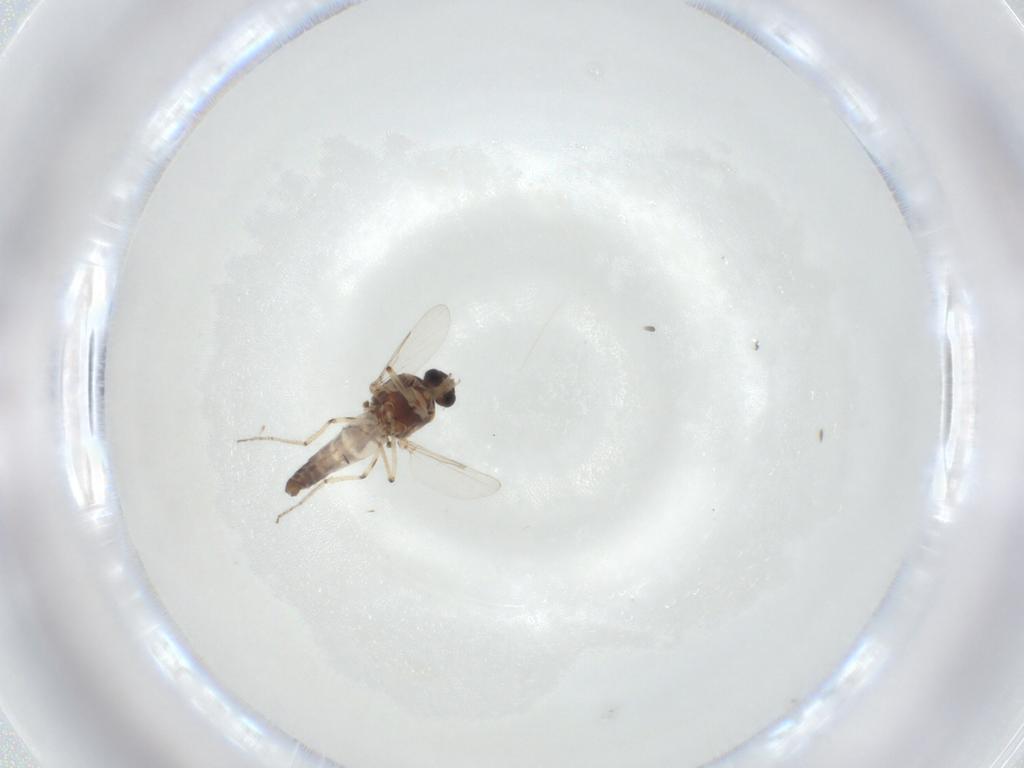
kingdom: Animalia
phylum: Arthropoda
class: Insecta
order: Diptera
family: Ceratopogonidae
